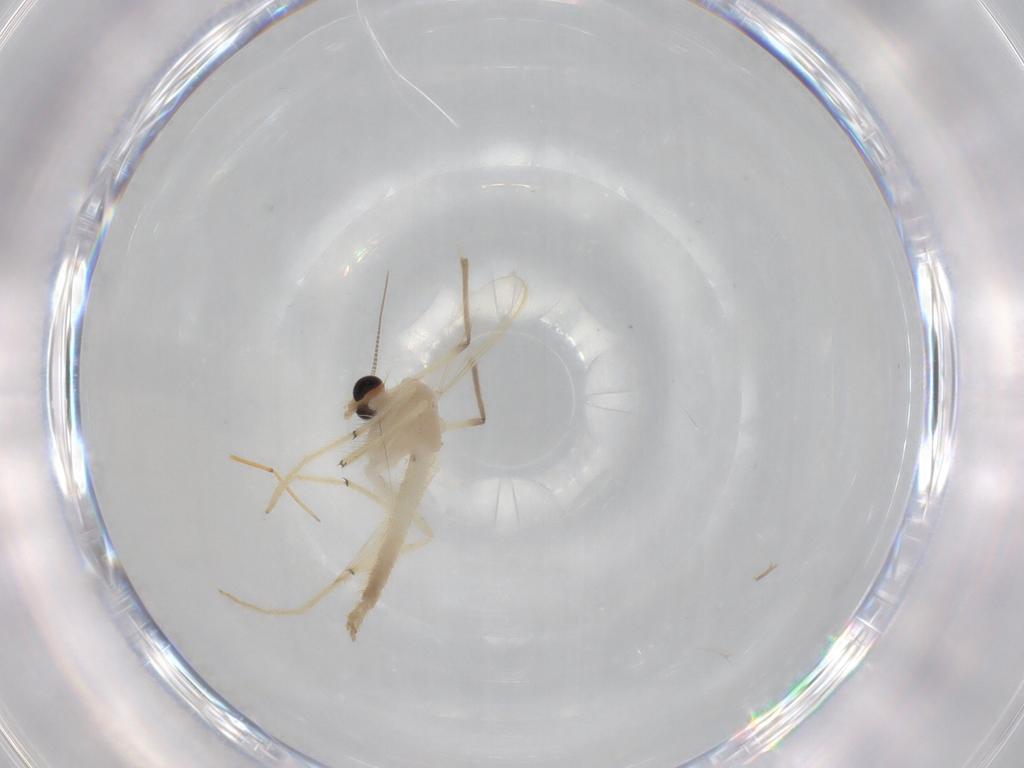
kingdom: Animalia
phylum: Arthropoda
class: Insecta
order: Diptera
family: Chironomidae
